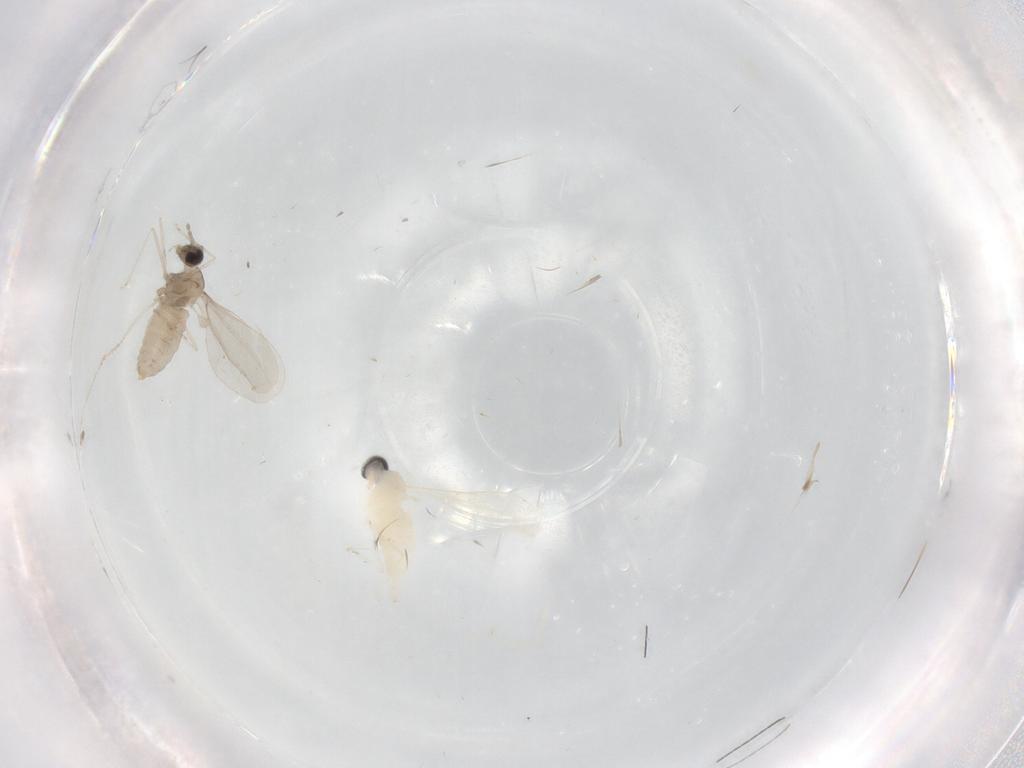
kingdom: Animalia
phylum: Arthropoda
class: Insecta
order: Diptera
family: Cecidomyiidae
